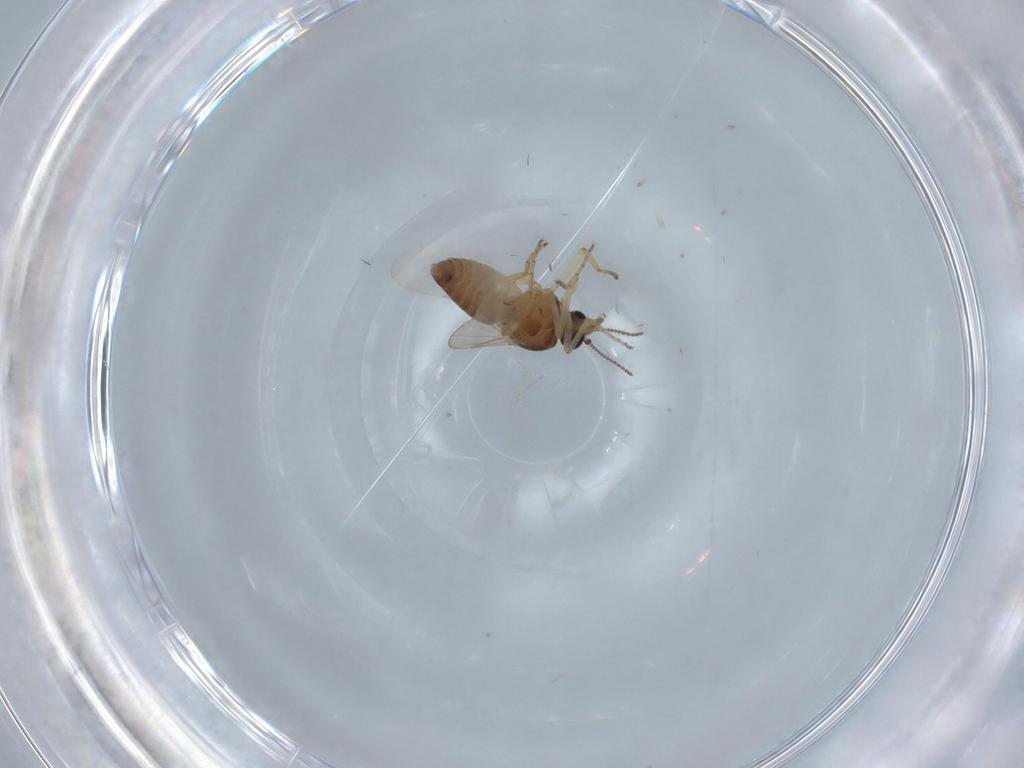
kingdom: Animalia
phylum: Arthropoda
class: Insecta
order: Diptera
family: Ceratopogonidae
